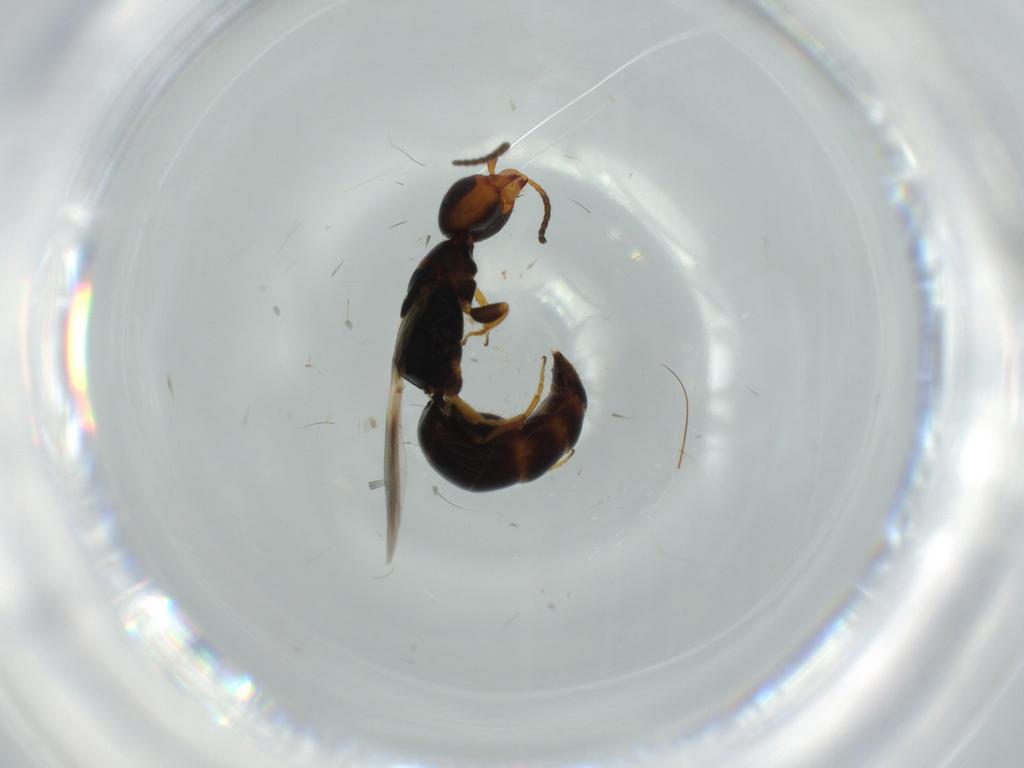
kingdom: Animalia
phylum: Arthropoda
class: Insecta
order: Hymenoptera
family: Bethylidae
